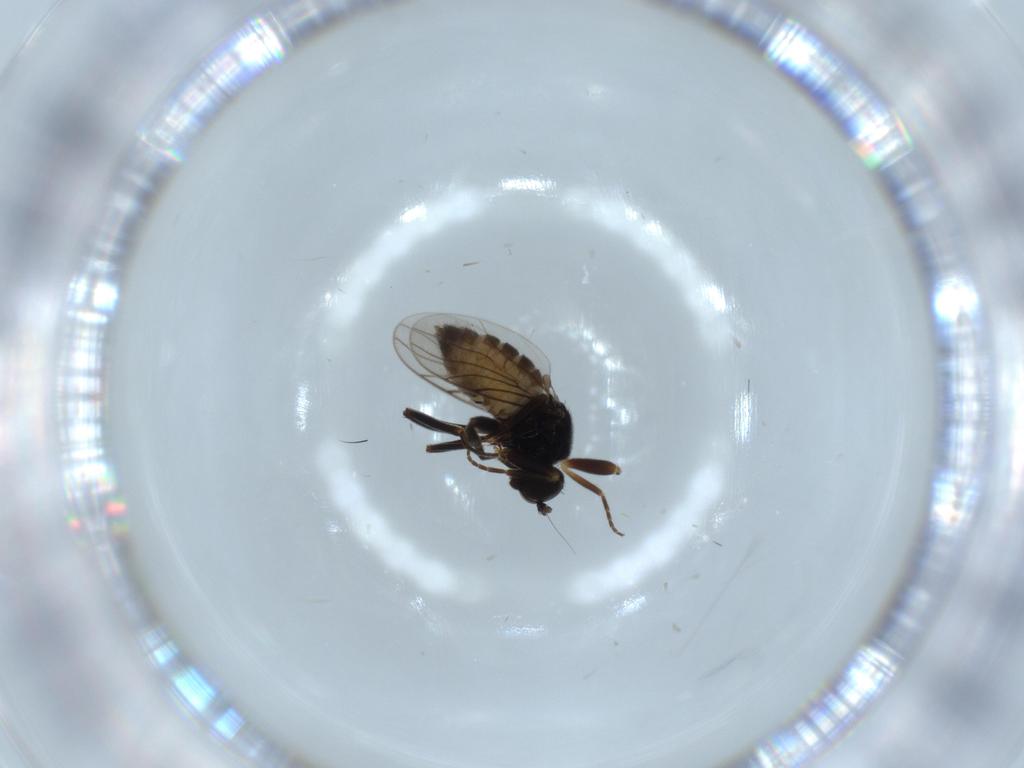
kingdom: Animalia
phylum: Arthropoda
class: Insecta
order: Diptera
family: Hybotidae
